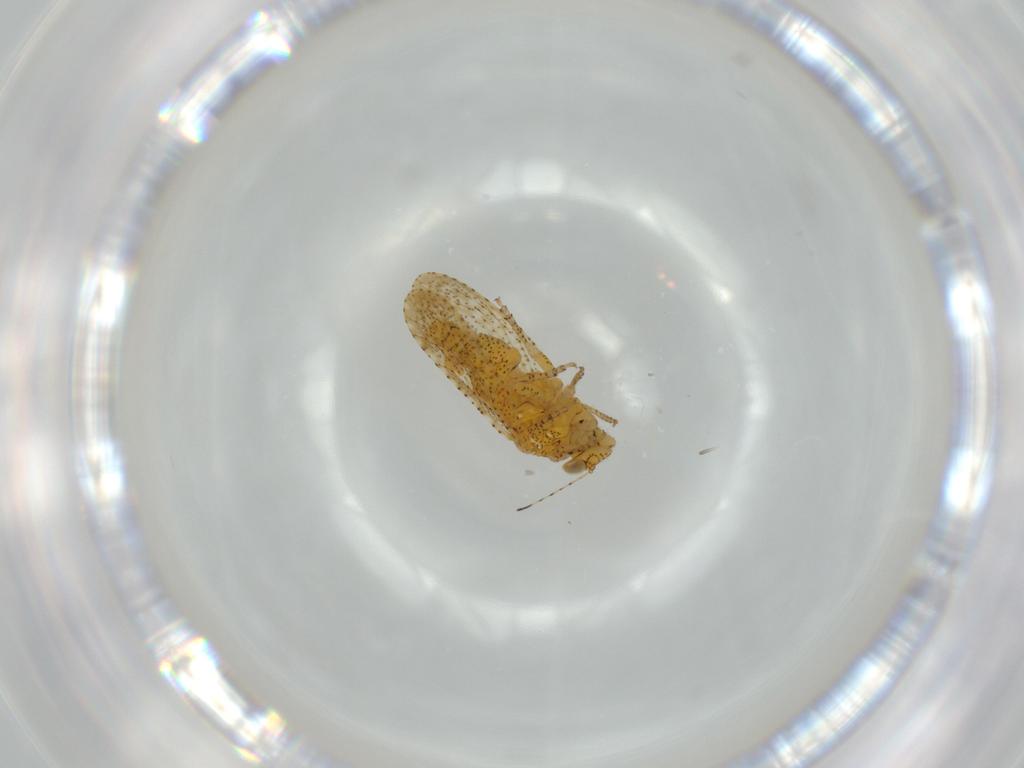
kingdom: Animalia
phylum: Arthropoda
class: Insecta
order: Hemiptera
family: Psyllidae
